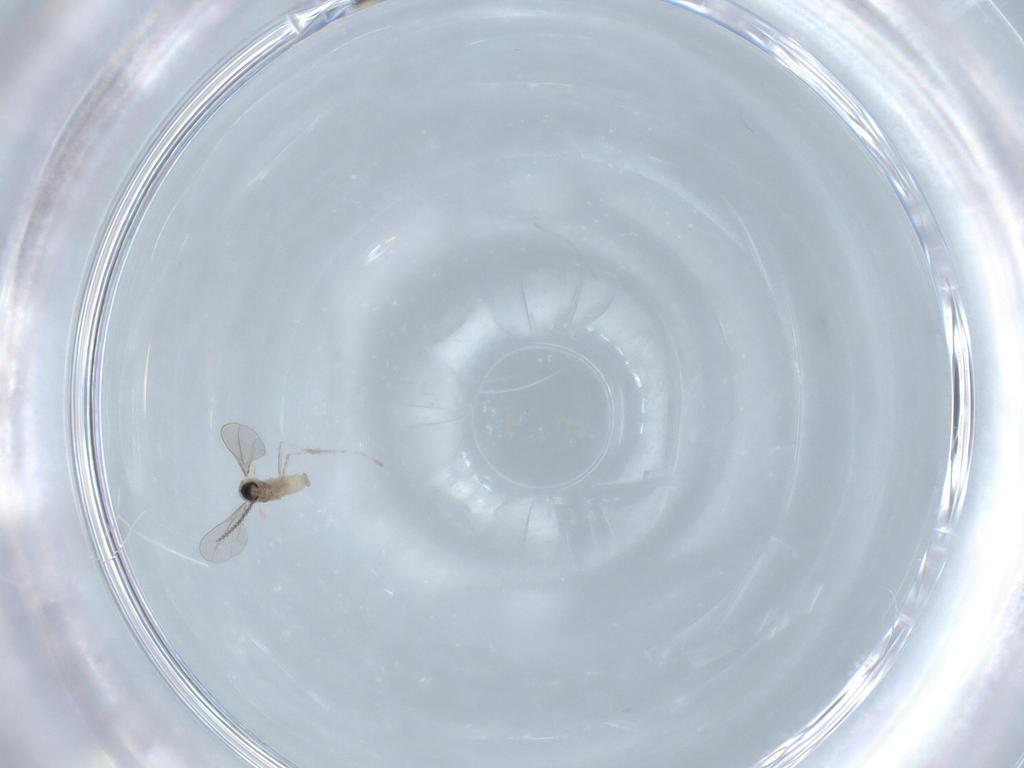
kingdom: Animalia
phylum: Arthropoda
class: Insecta
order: Diptera
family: Cecidomyiidae
